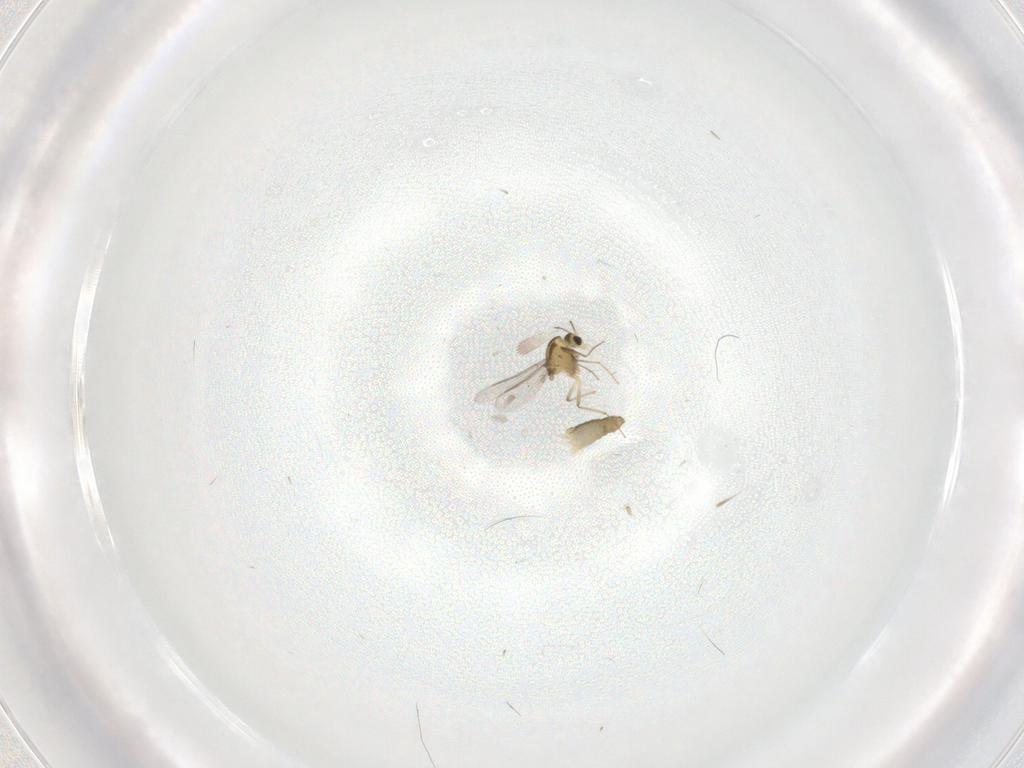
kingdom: Animalia
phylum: Arthropoda
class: Insecta
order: Diptera
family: Chironomidae
